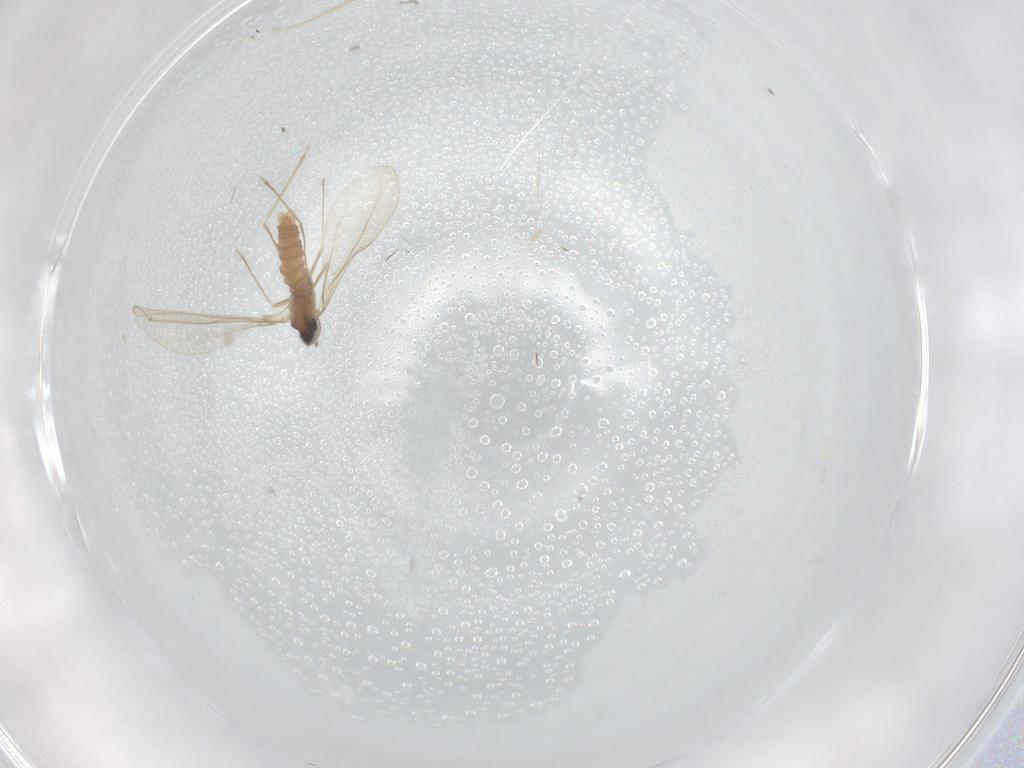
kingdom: Animalia
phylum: Arthropoda
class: Insecta
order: Diptera
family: Cecidomyiidae
